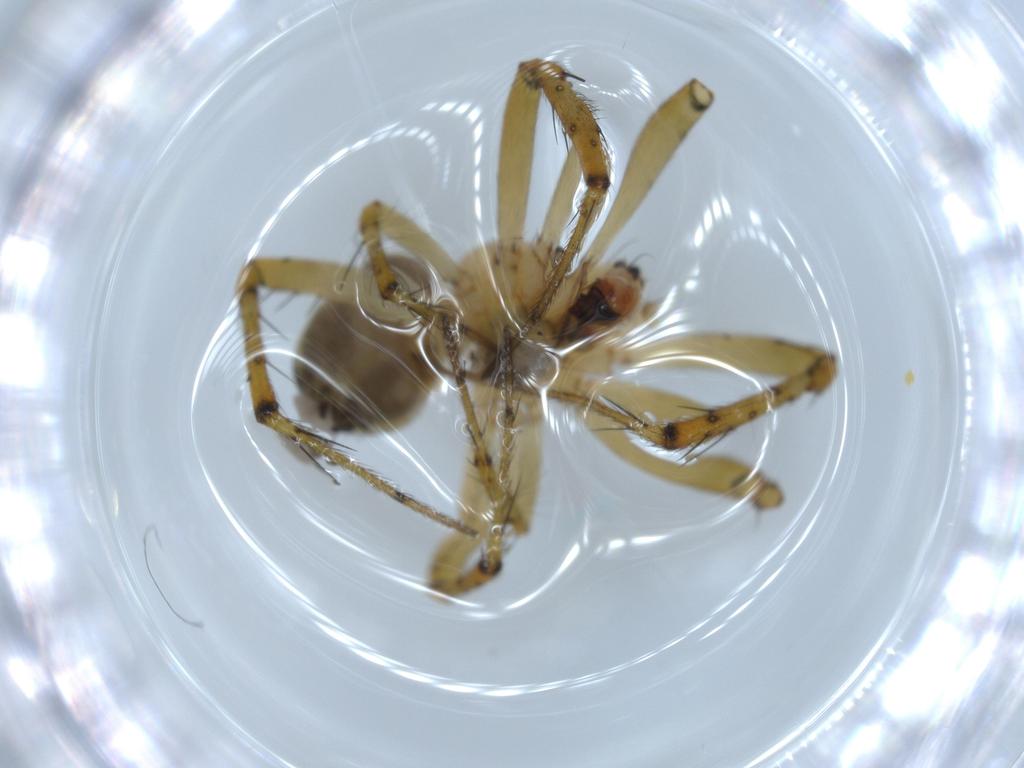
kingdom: Animalia
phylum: Arthropoda
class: Arachnida
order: Araneae
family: Araneidae
